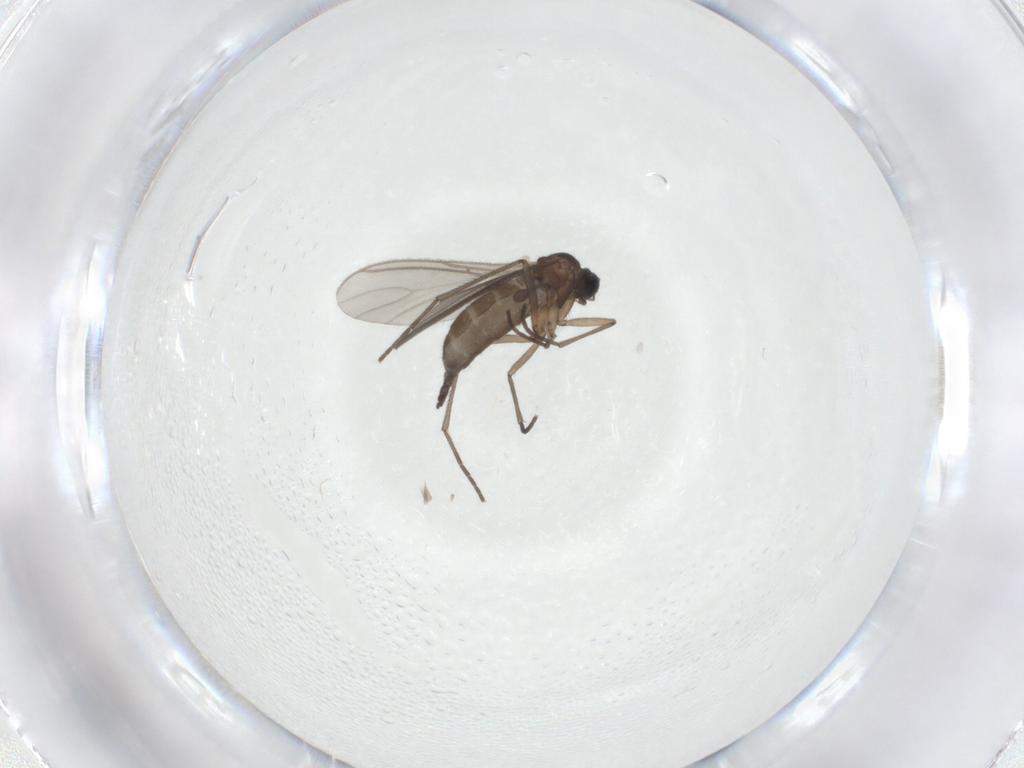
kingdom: Animalia
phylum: Arthropoda
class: Insecta
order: Diptera
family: Sciaridae
